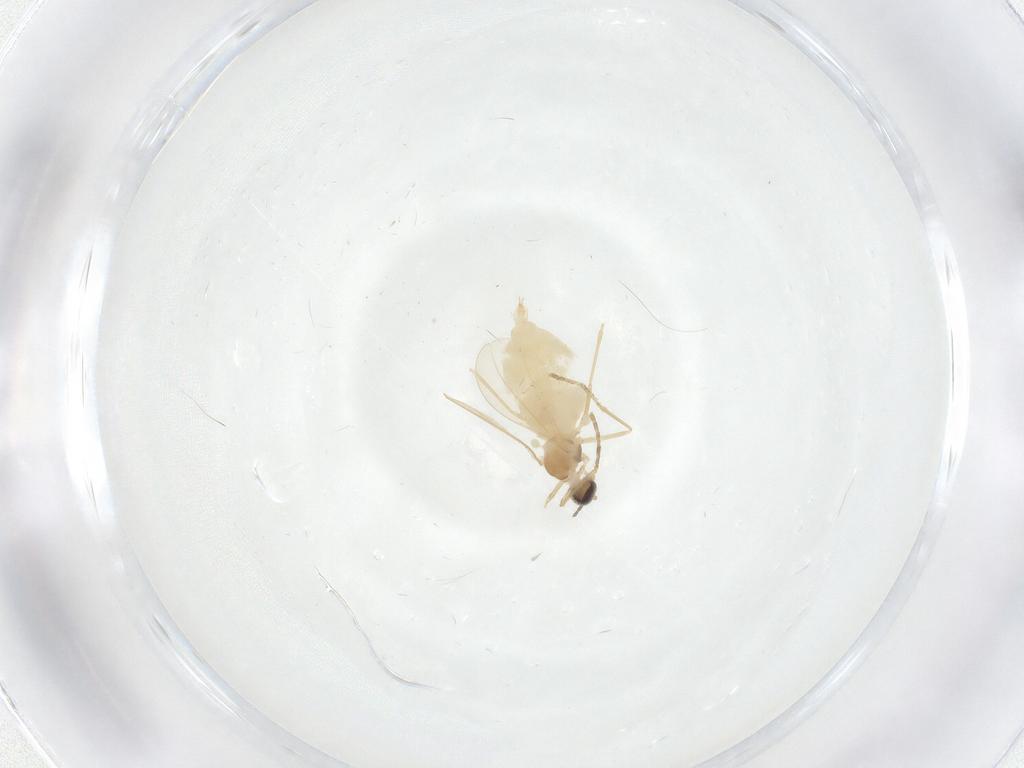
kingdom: Animalia
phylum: Arthropoda
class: Insecta
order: Diptera
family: Cecidomyiidae
